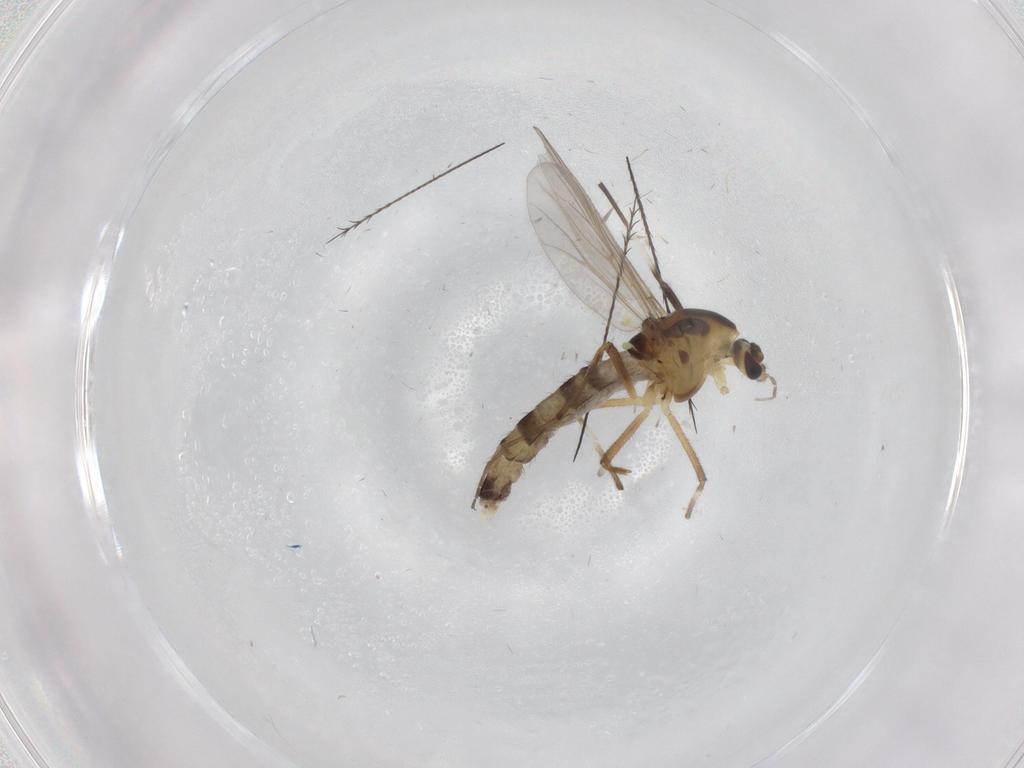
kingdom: Animalia
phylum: Arthropoda
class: Insecta
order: Diptera
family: Chironomidae
